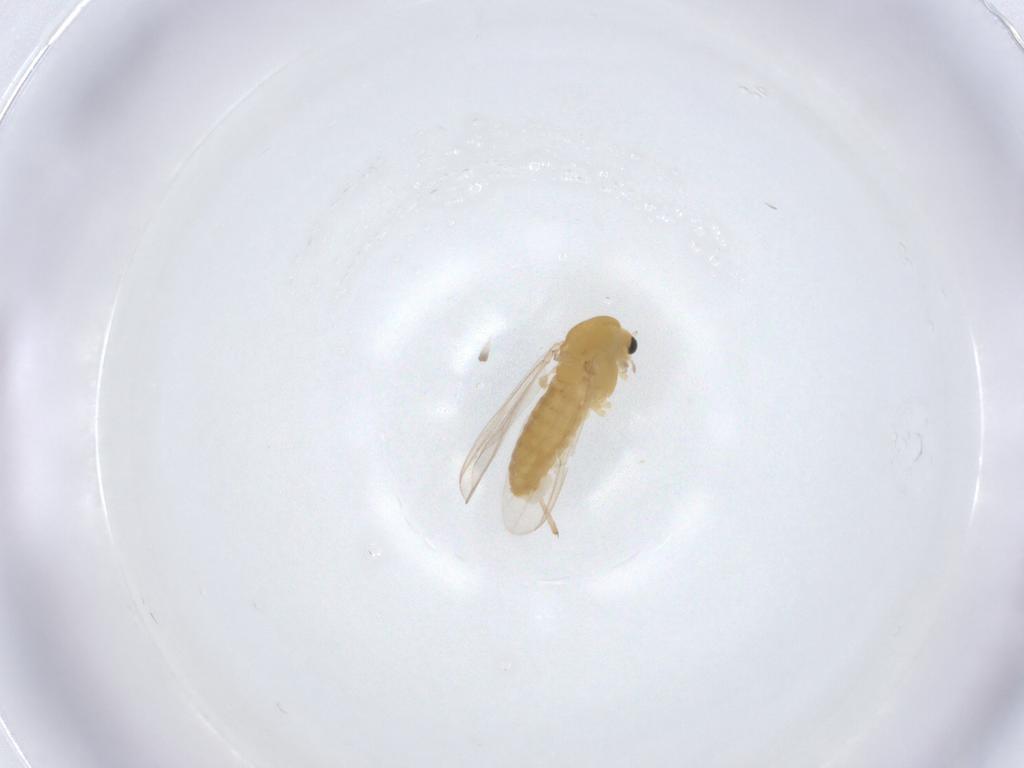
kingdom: Animalia
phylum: Arthropoda
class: Insecta
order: Diptera
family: Chironomidae
